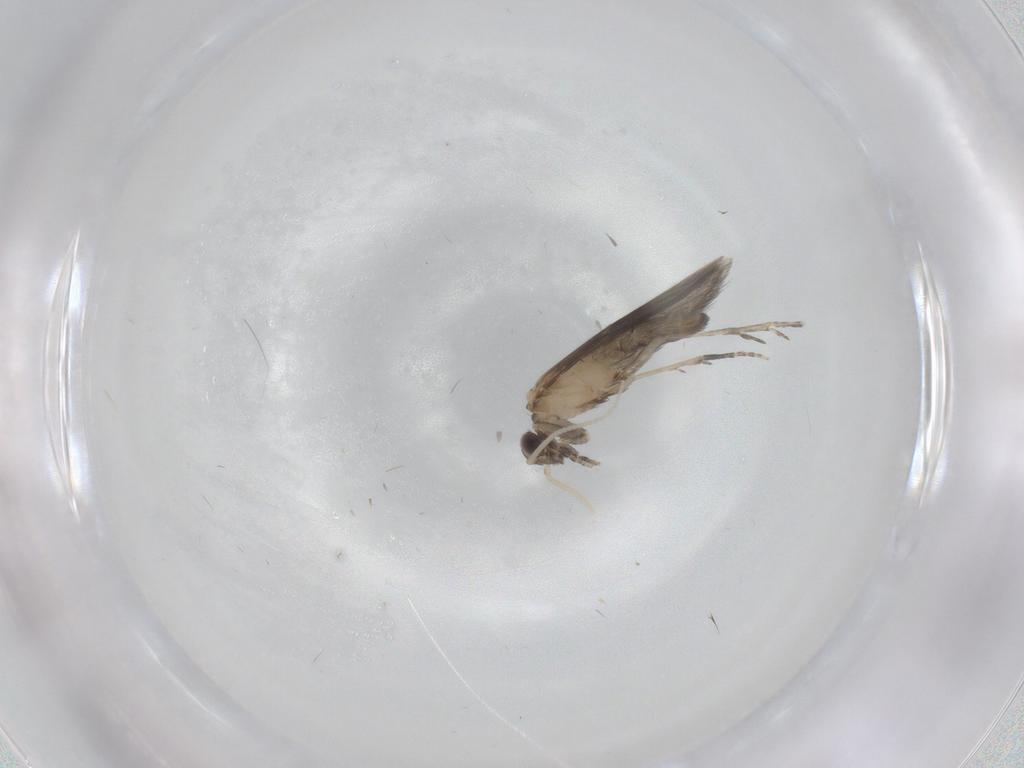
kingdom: Animalia
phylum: Arthropoda
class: Insecta
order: Trichoptera
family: Hydroptilidae
